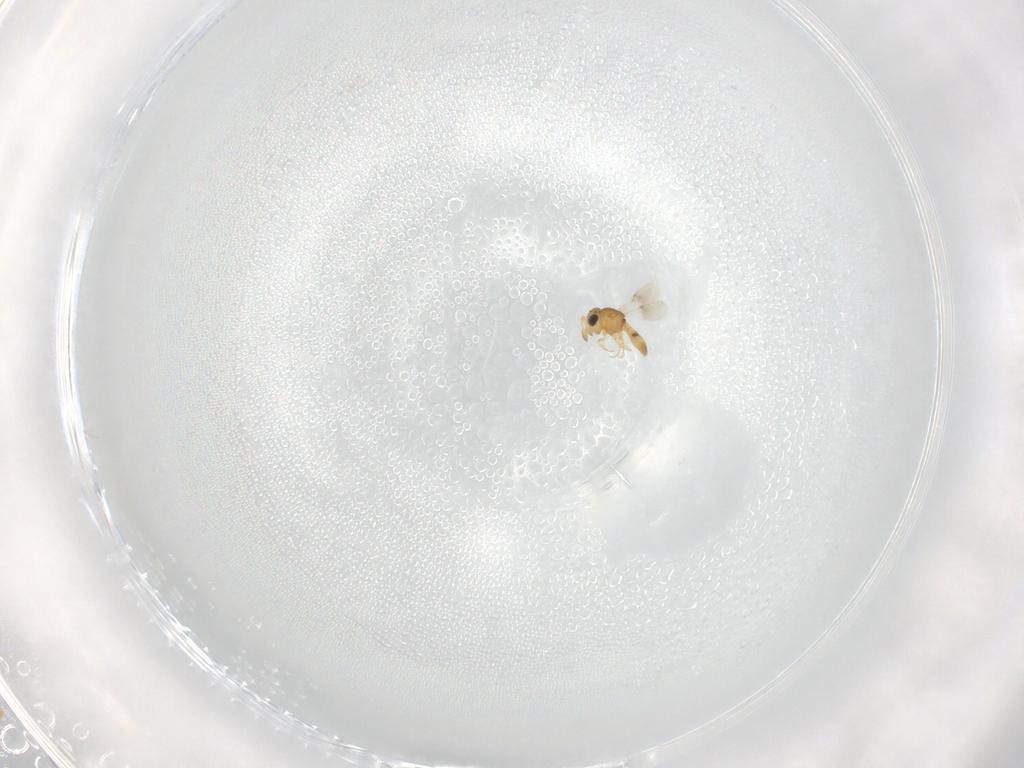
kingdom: Animalia
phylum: Arthropoda
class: Insecta
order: Hymenoptera
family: Scelionidae
